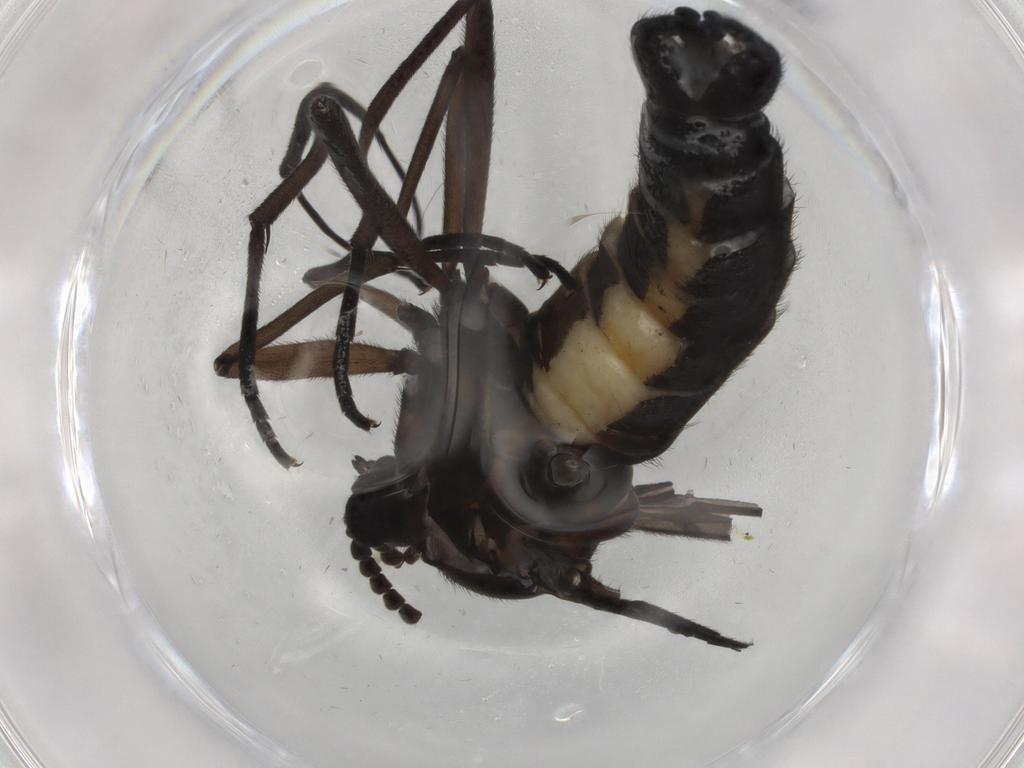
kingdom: Animalia
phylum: Arthropoda
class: Insecta
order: Diptera
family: Sciaridae
